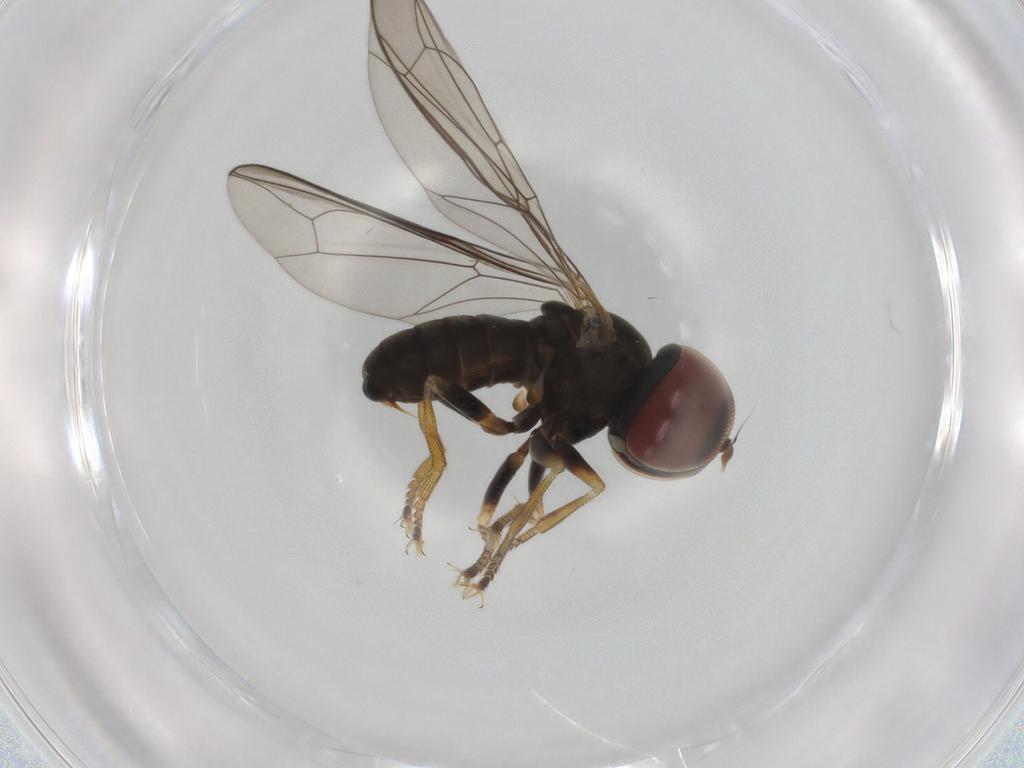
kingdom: Animalia
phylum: Arthropoda
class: Insecta
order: Diptera
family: Pipunculidae
